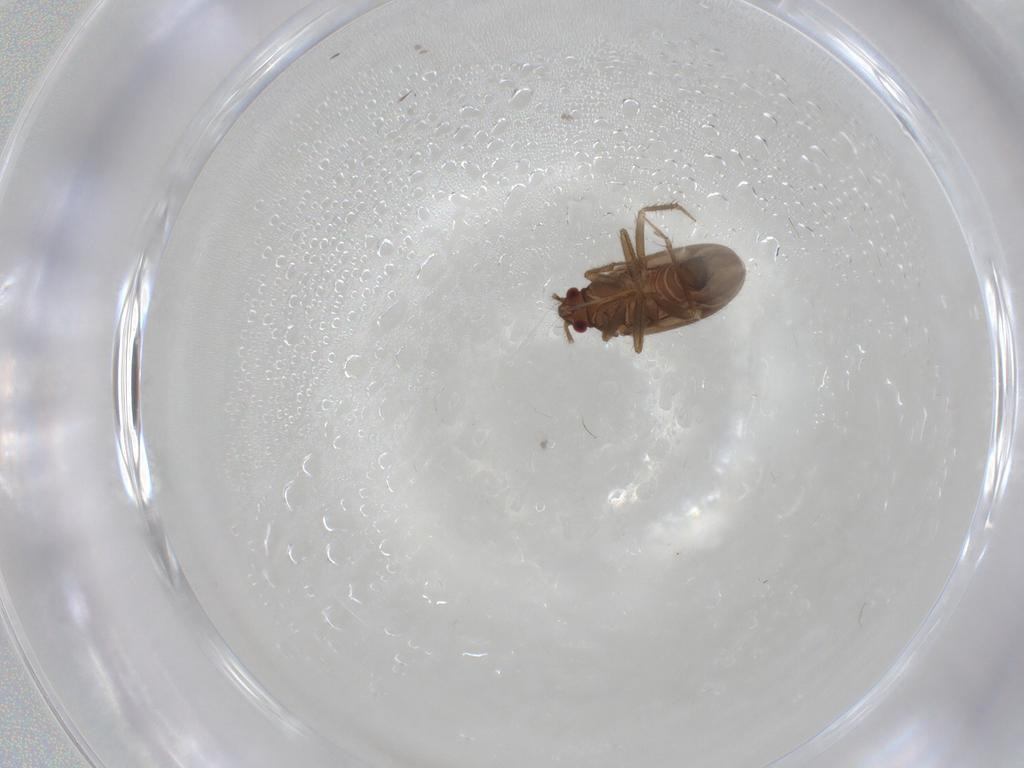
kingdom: Animalia
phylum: Arthropoda
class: Insecta
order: Hemiptera
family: Ceratocombidae
